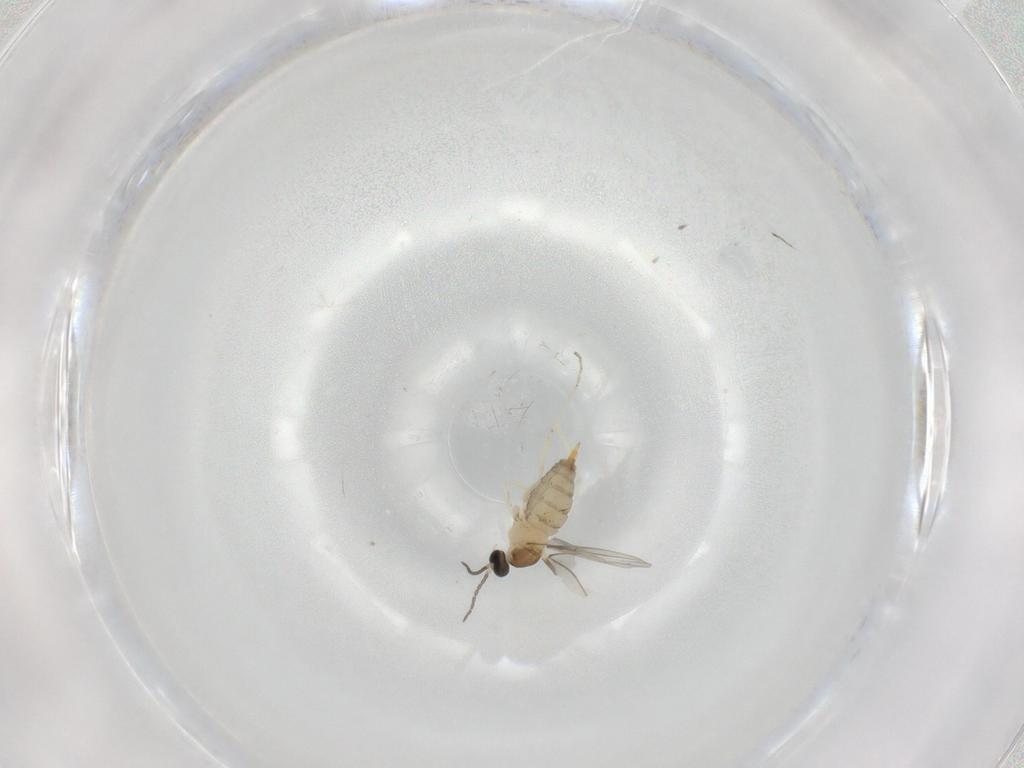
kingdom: Animalia
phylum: Arthropoda
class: Insecta
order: Diptera
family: Cecidomyiidae
